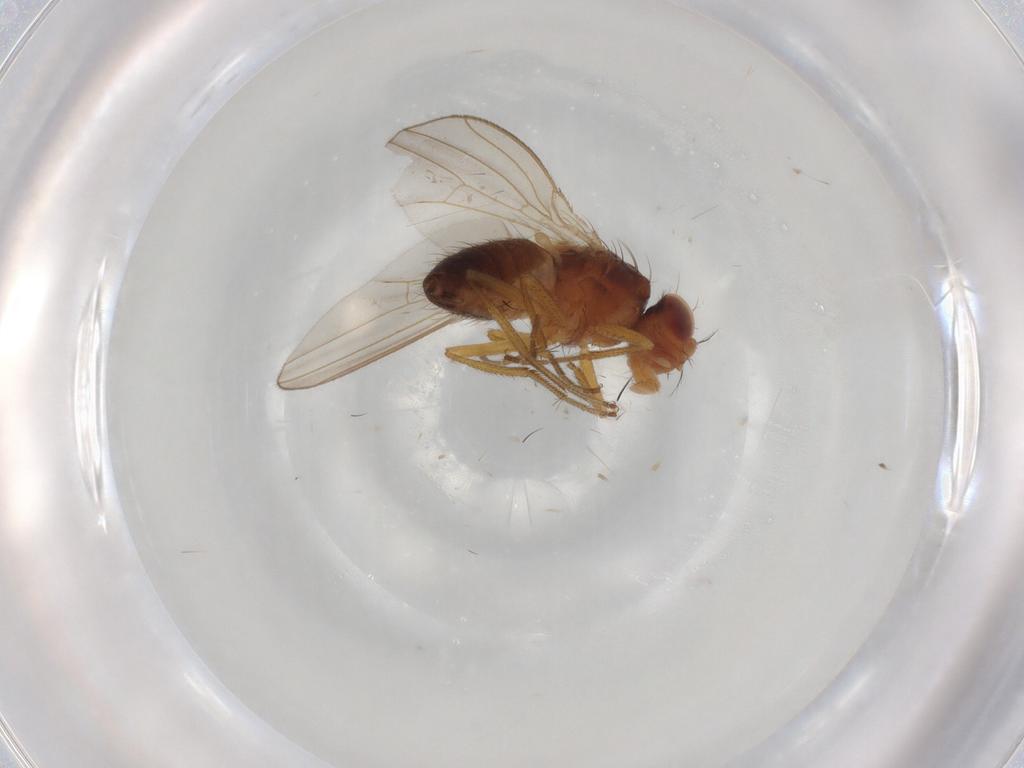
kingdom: Animalia
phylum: Arthropoda
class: Insecta
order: Diptera
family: Drosophilidae
